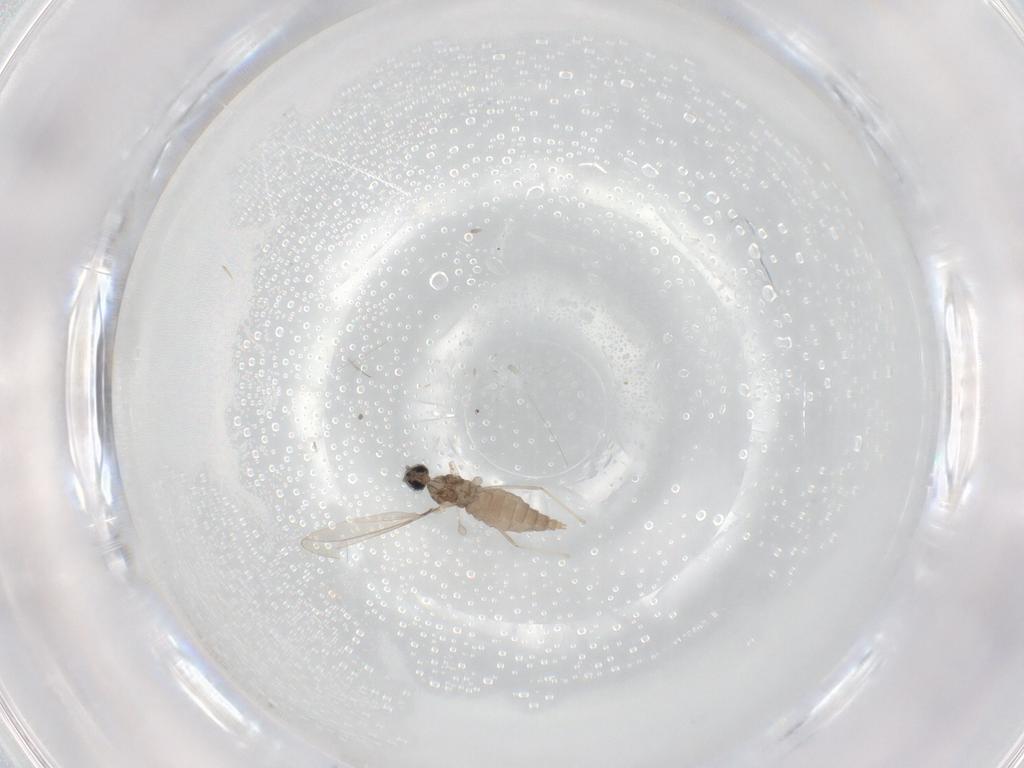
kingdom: Animalia
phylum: Arthropoda
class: Insecta
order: Diptera
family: Cecidomyiidae
